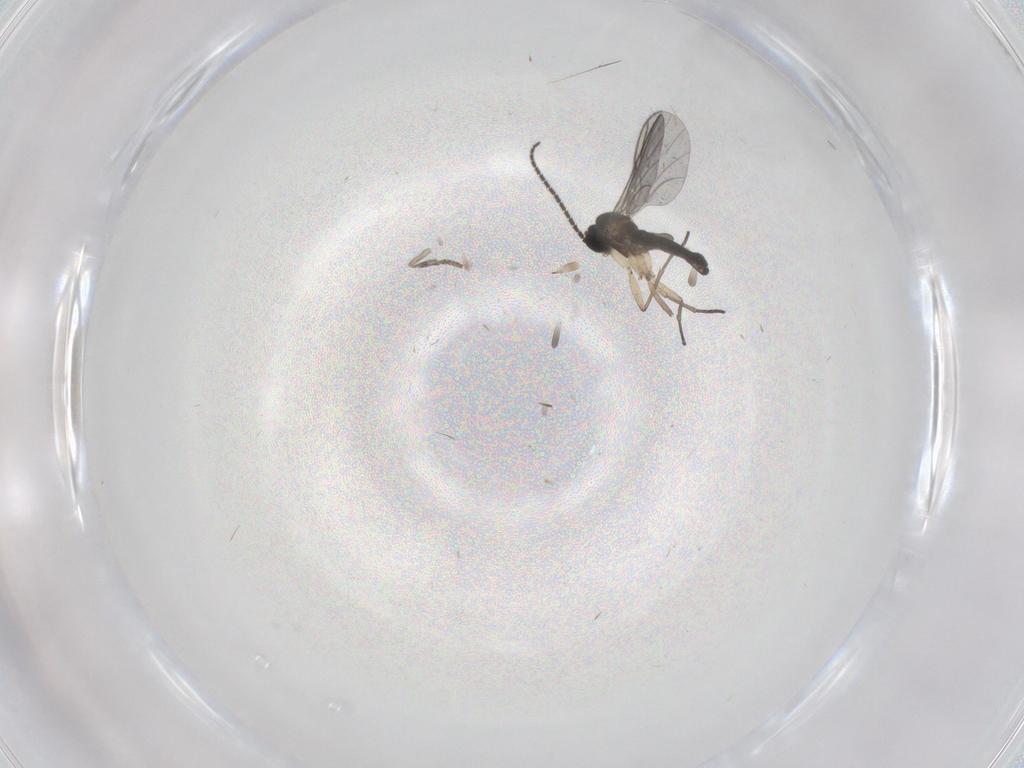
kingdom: Animalia
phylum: Arthropoda
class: Insecta
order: Diptera
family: Psychodidae
